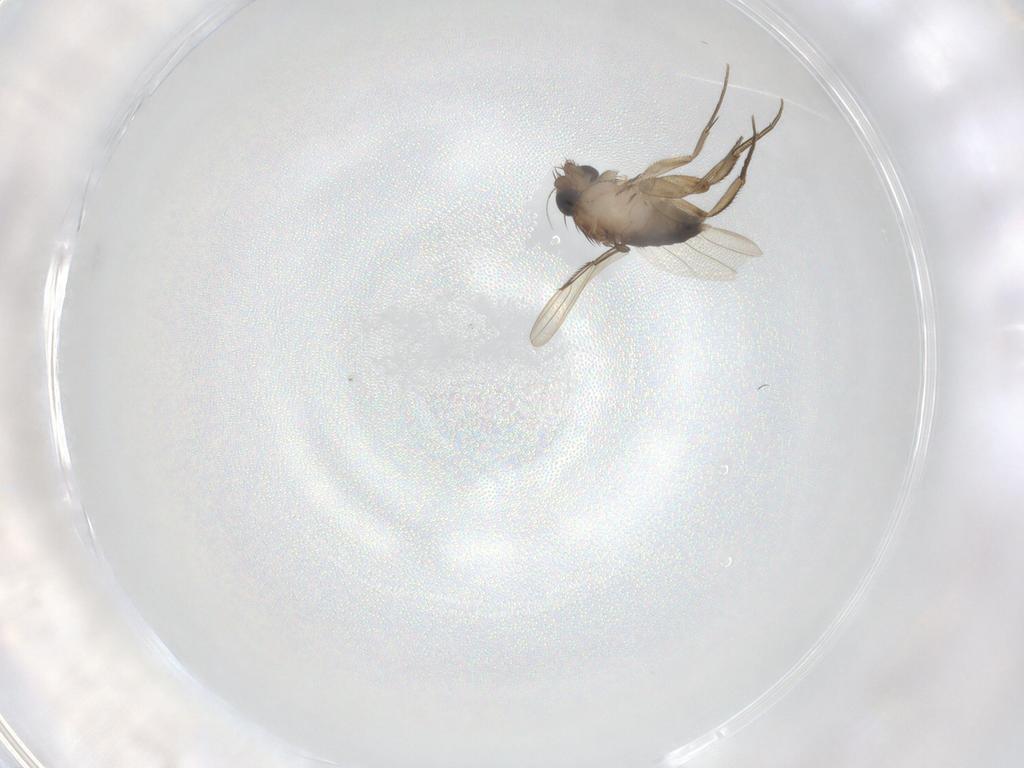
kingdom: Animalia
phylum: Arthropoda
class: Insecta
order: Diptera
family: Phoridae
